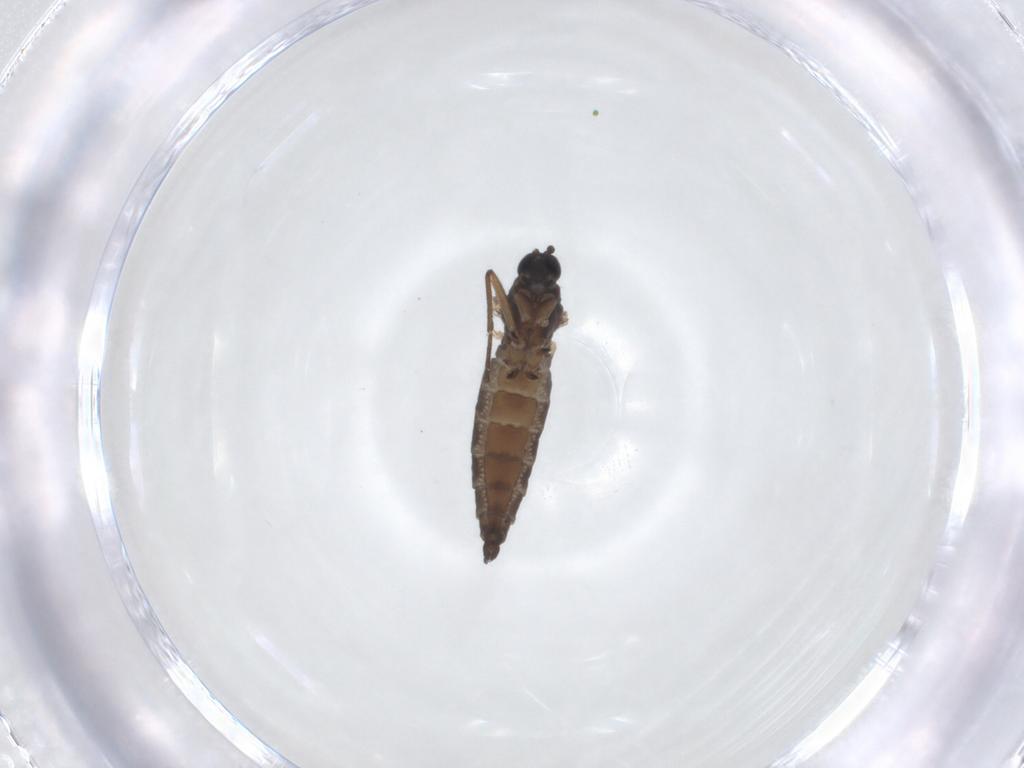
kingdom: Animalia
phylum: Arthropoda
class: Insecta
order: Diptera
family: Sciaridae
